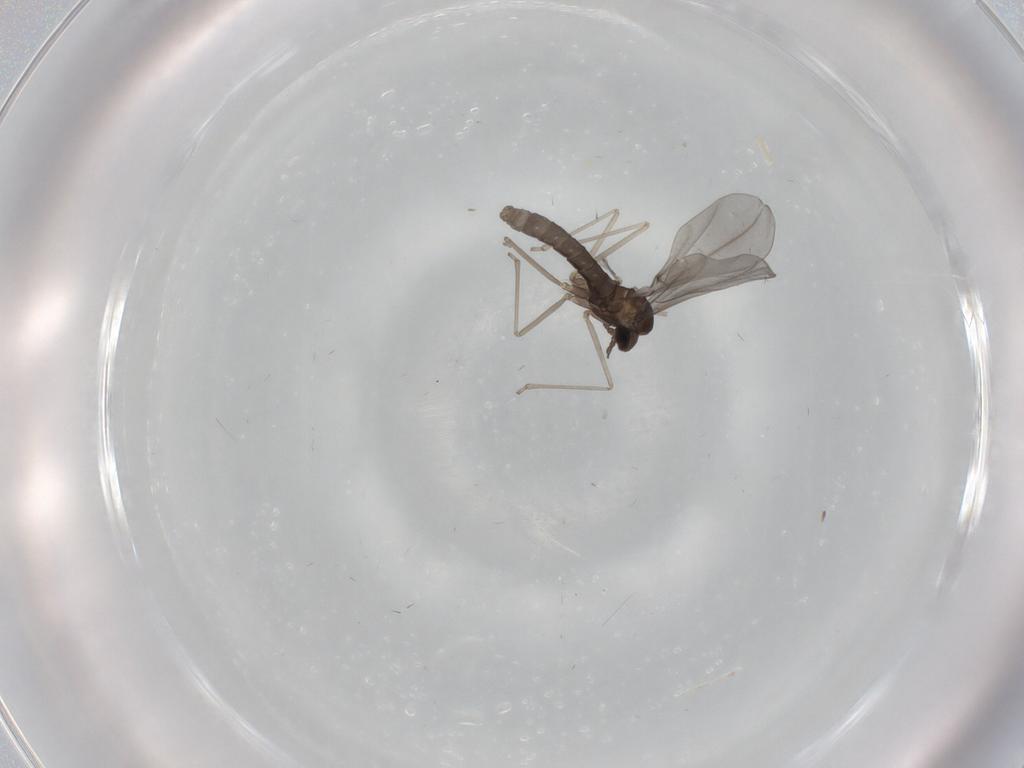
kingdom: Animalia
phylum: Arthropoda
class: Insecta
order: Diptera
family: Cecidomyiidae
